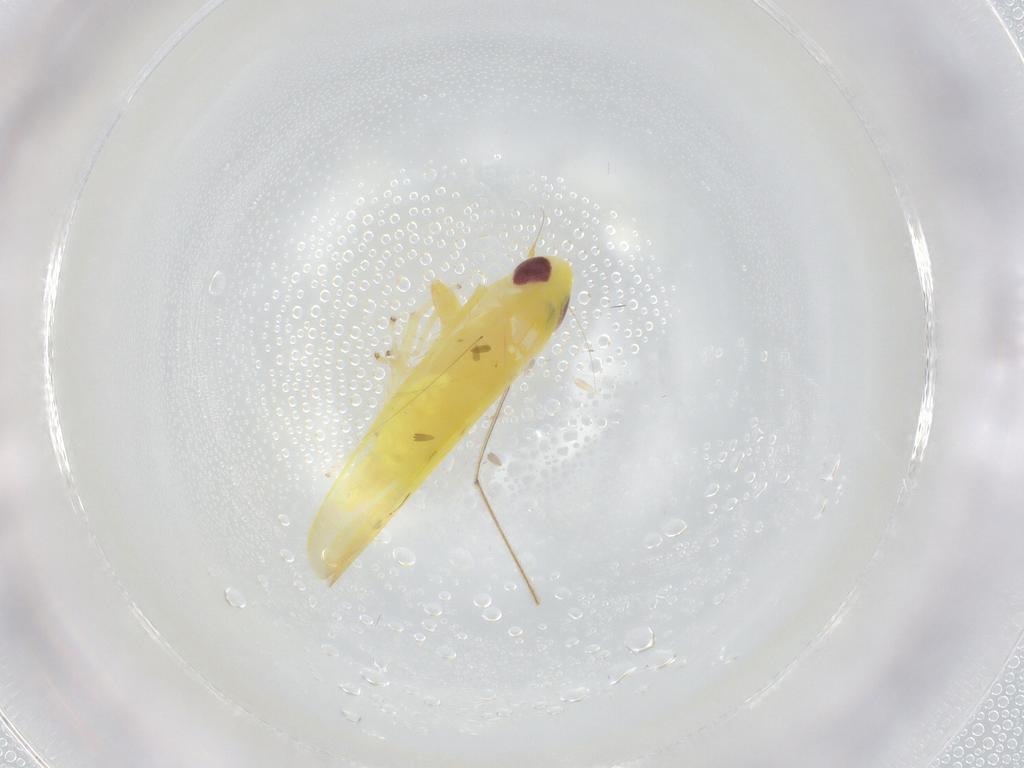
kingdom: Animalia
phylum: Arthropoda
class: Insecta
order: Hemiptera
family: Cicadellidae
